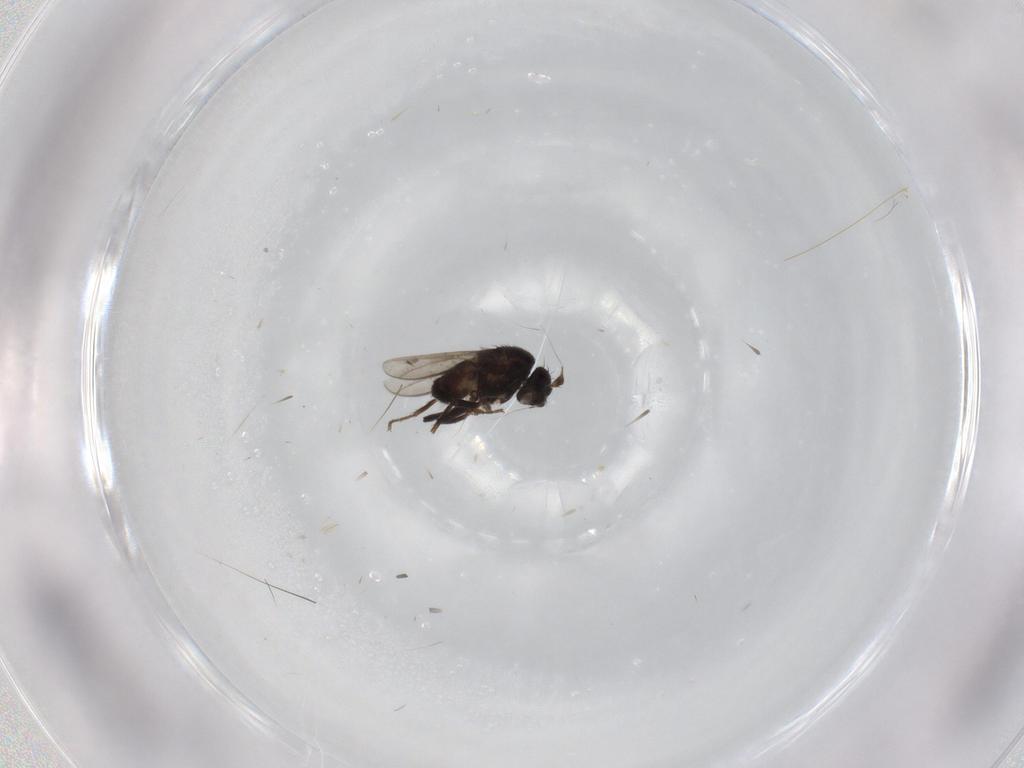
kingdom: Animalia
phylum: Arthropoda
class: Insecta
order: Diptera
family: Sphaeroceridae
